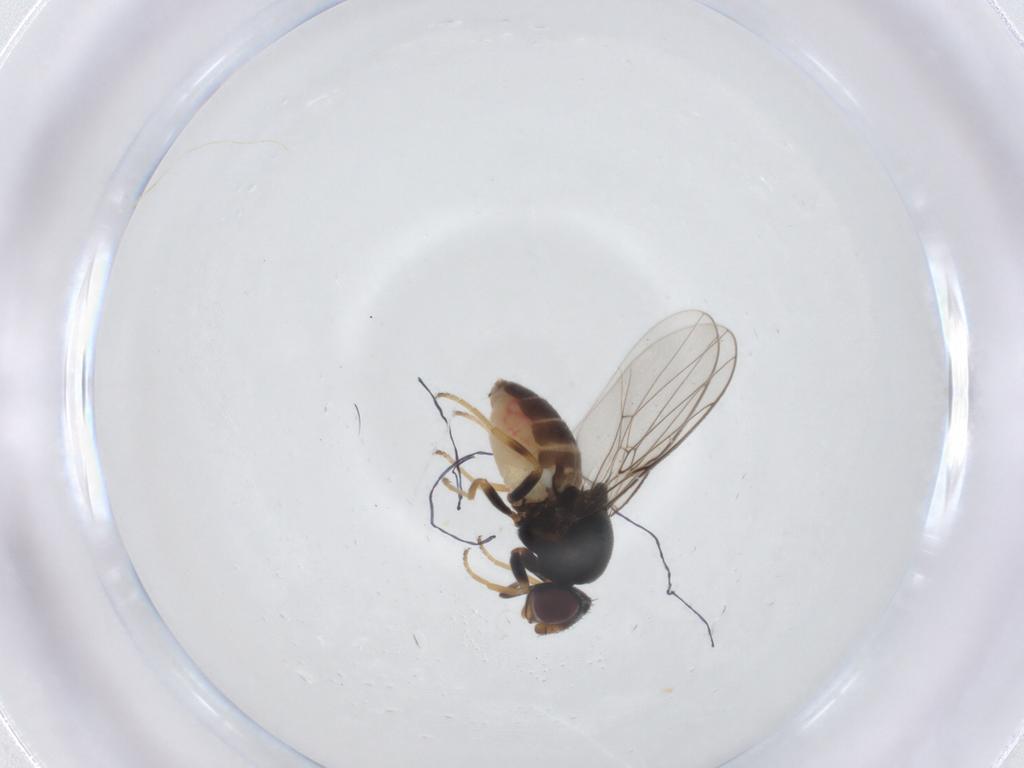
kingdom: Animalia
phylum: Arthropoda
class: Insecta
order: Diptera
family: Chloropidae
